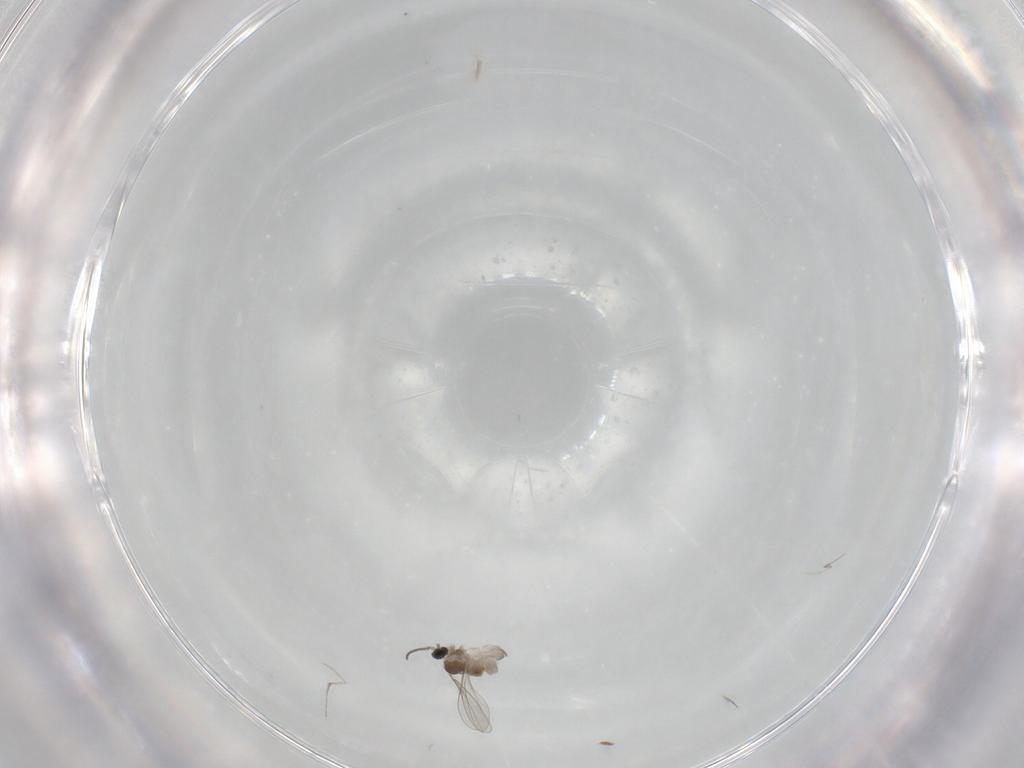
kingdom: Animalia
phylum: Arthropoda
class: Insecta
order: Diptera
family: Cecidomyiidae
